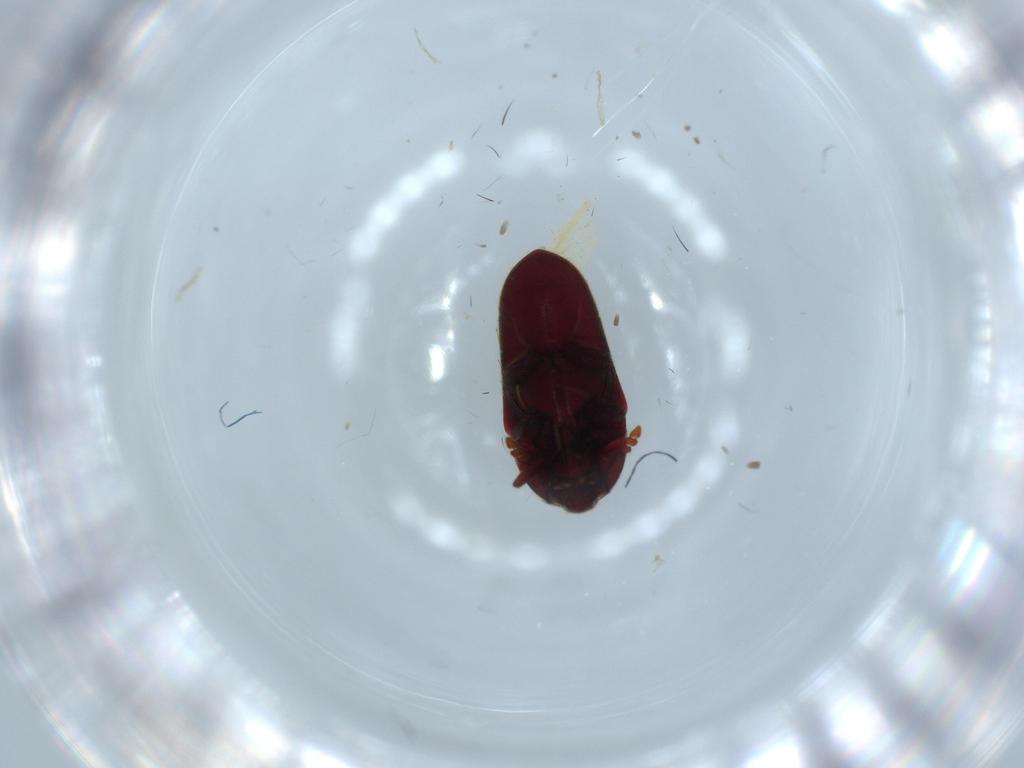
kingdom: Animalia
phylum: Arthropoda
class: Insecta
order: Coleoptera
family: Throscidae
